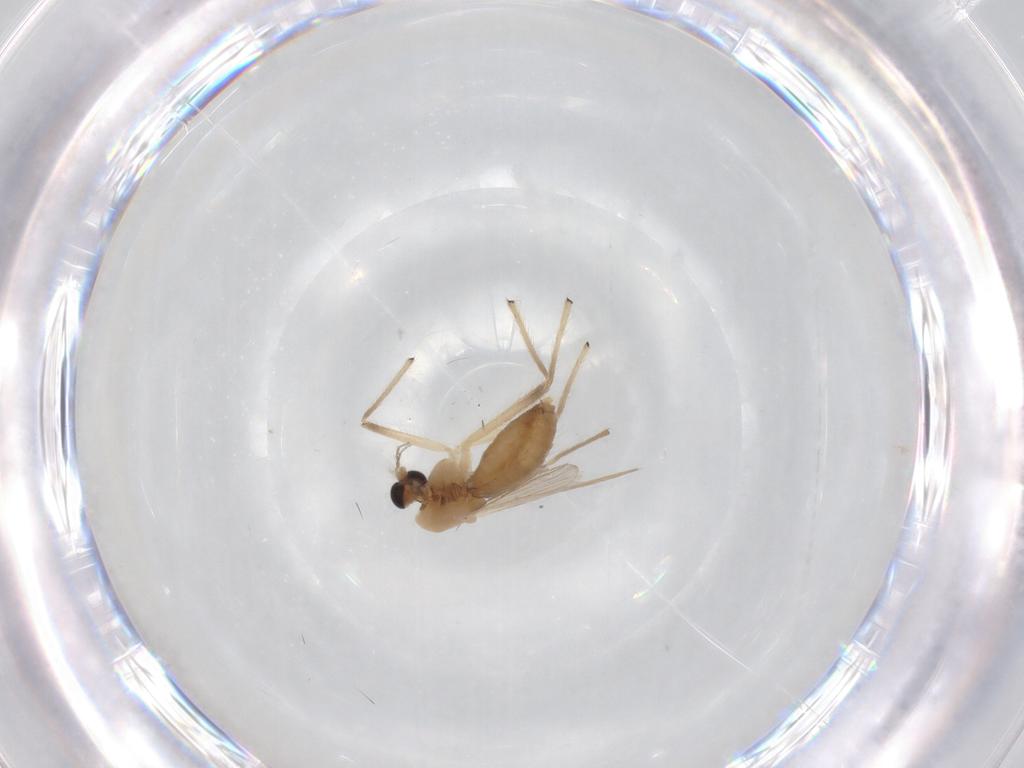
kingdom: Animalia
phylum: Arthropoda
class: Insecta
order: Diptera
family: Chironomidae
